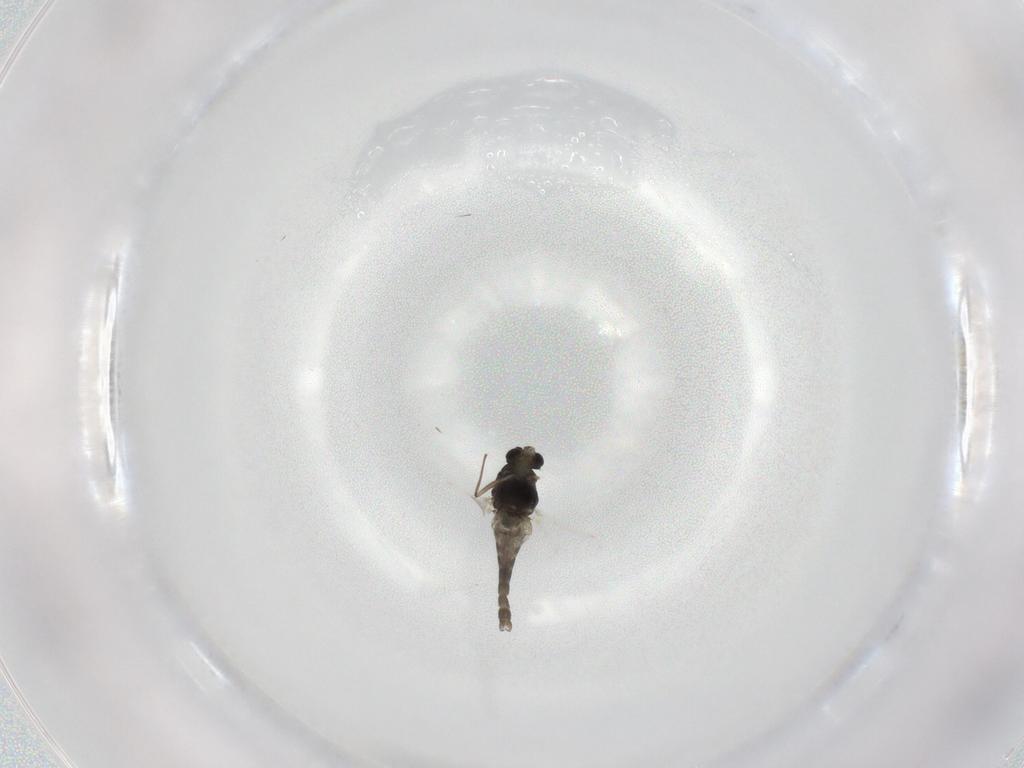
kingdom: Animalia
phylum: Arthropoda
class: Insecta
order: Diptera
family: Chironomidae
